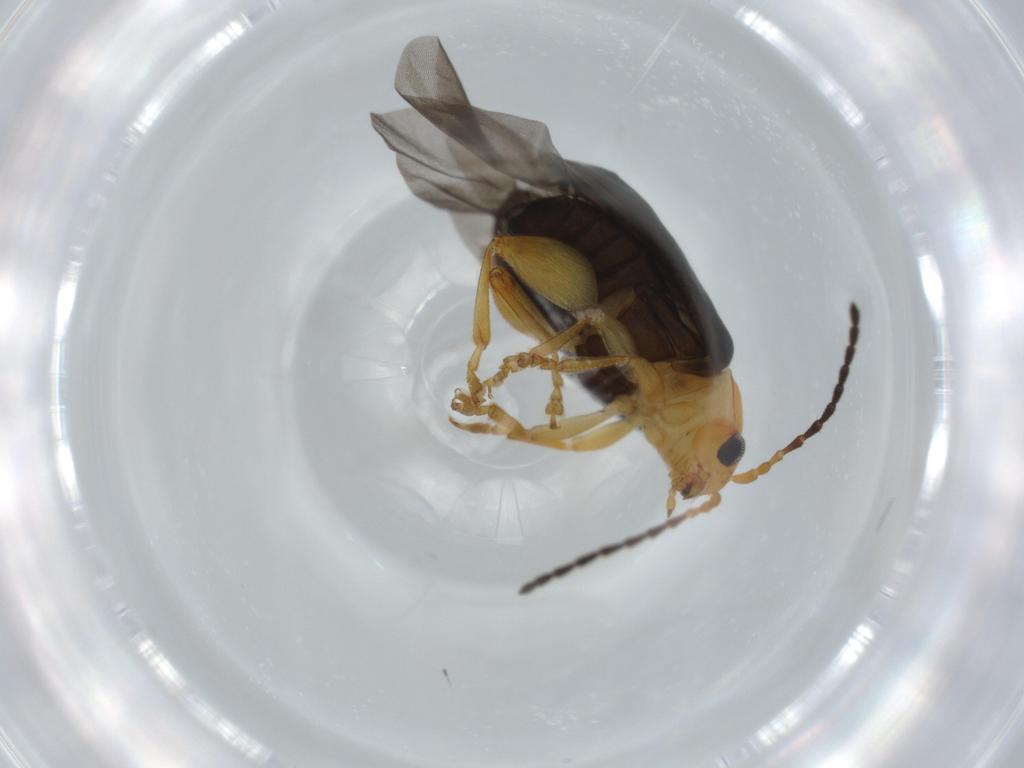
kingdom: Animalia
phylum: Arthropoda
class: Insecta
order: Coleoptera
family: Chrysomelidae
